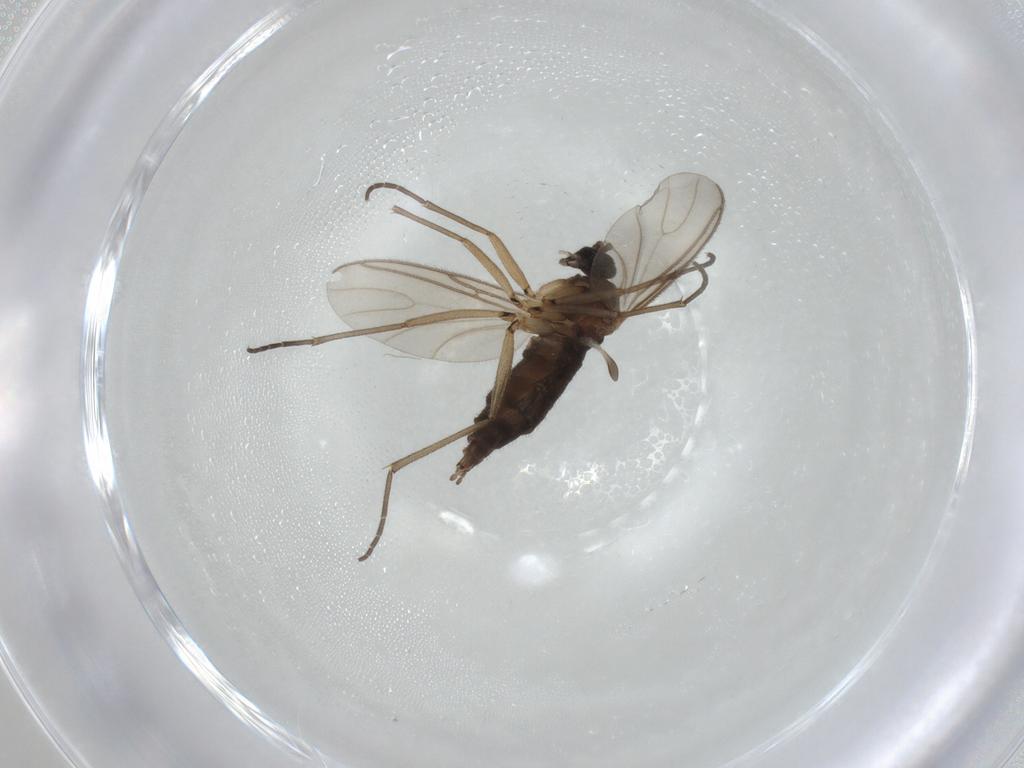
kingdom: Animalia
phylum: Arthropoda
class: Insecta
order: Diptera
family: Sciaridae
